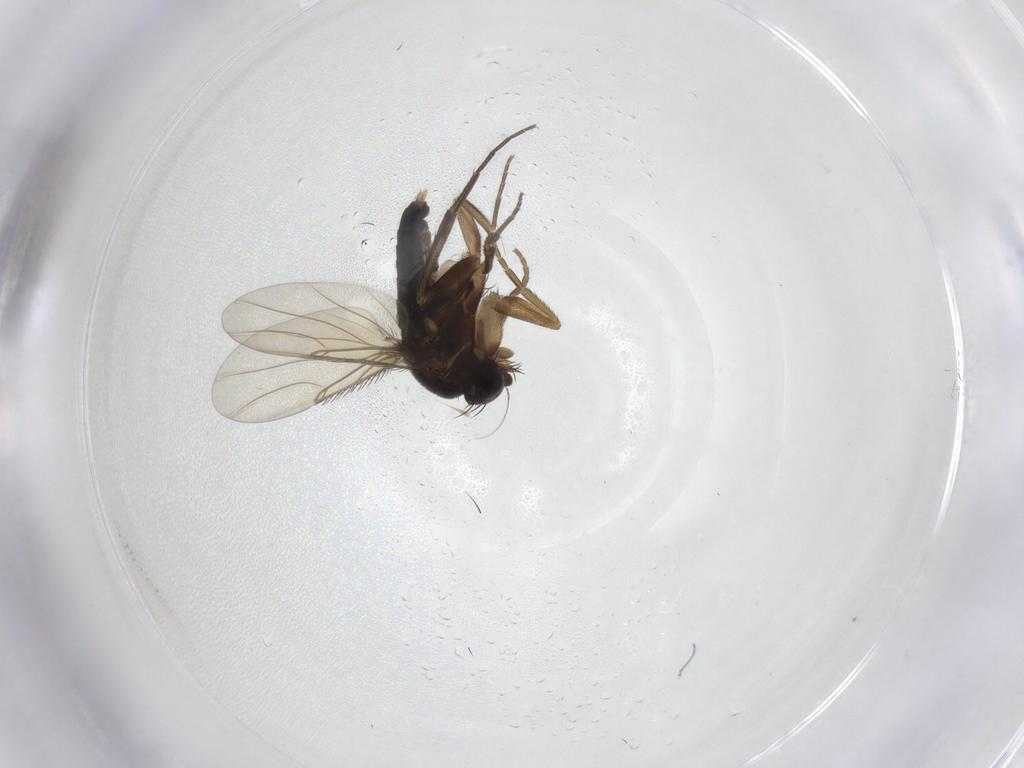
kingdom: Animalia
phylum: Arthropoda
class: Insecta
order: Diptera
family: Phoridae
